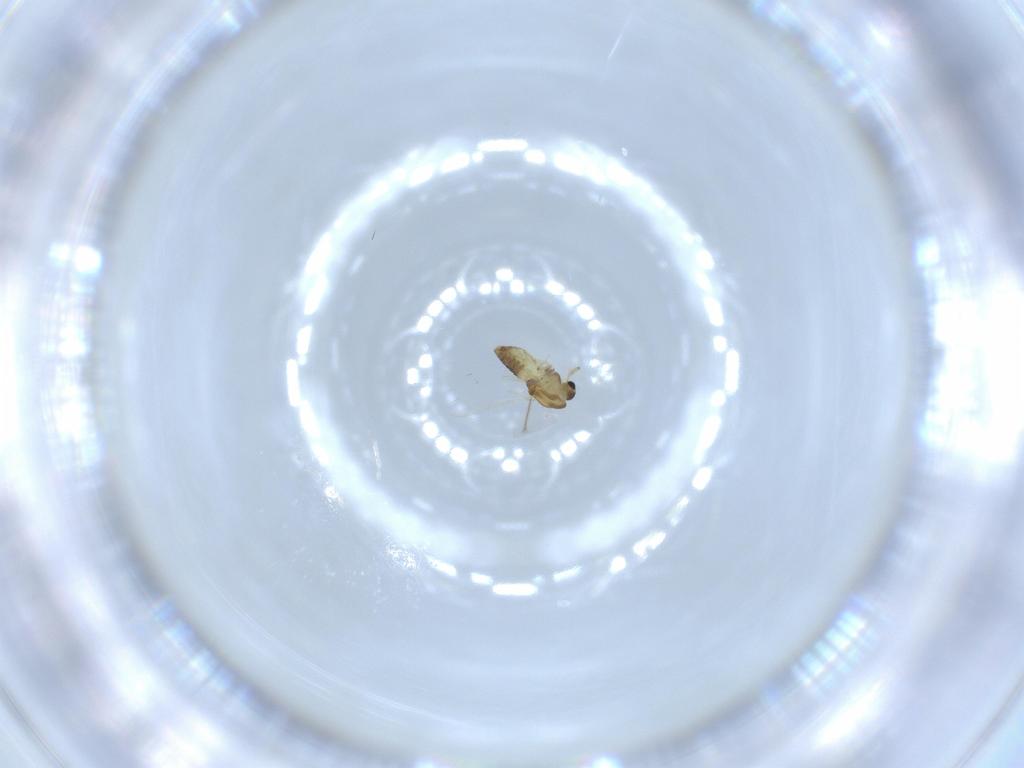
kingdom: Animalia
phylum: Arthropoda
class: Insecta
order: Diptera
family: Chironomidae
